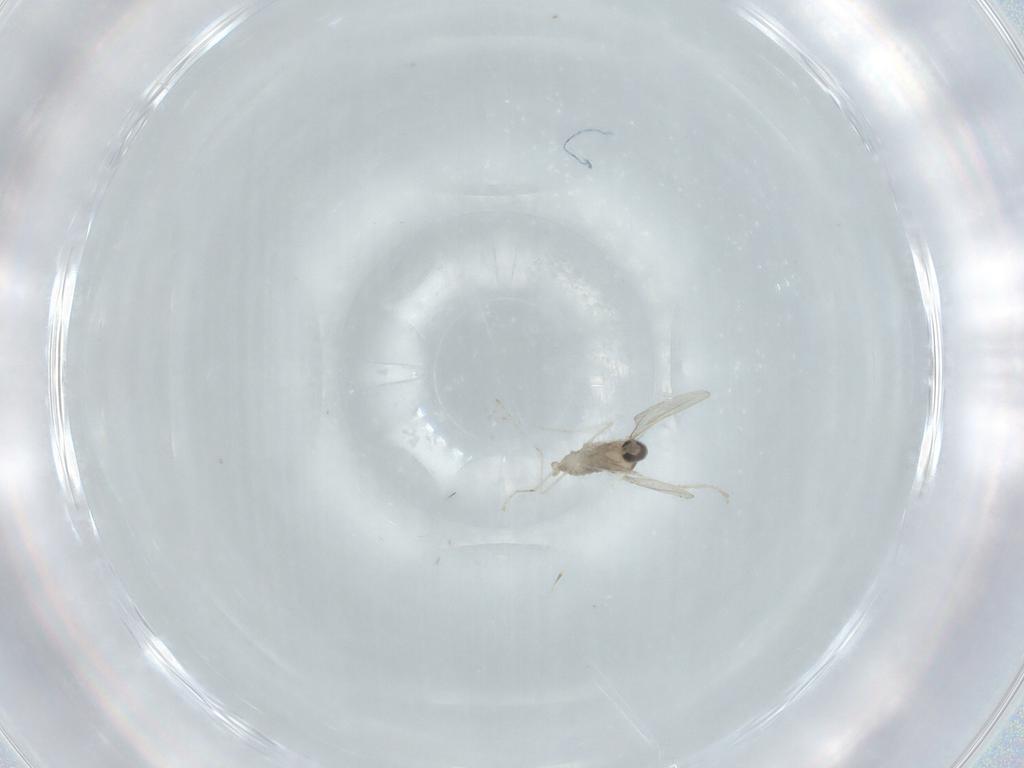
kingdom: Animalia
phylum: Arthropoda
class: Insecta
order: Diptera
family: Cecidomyiidae
